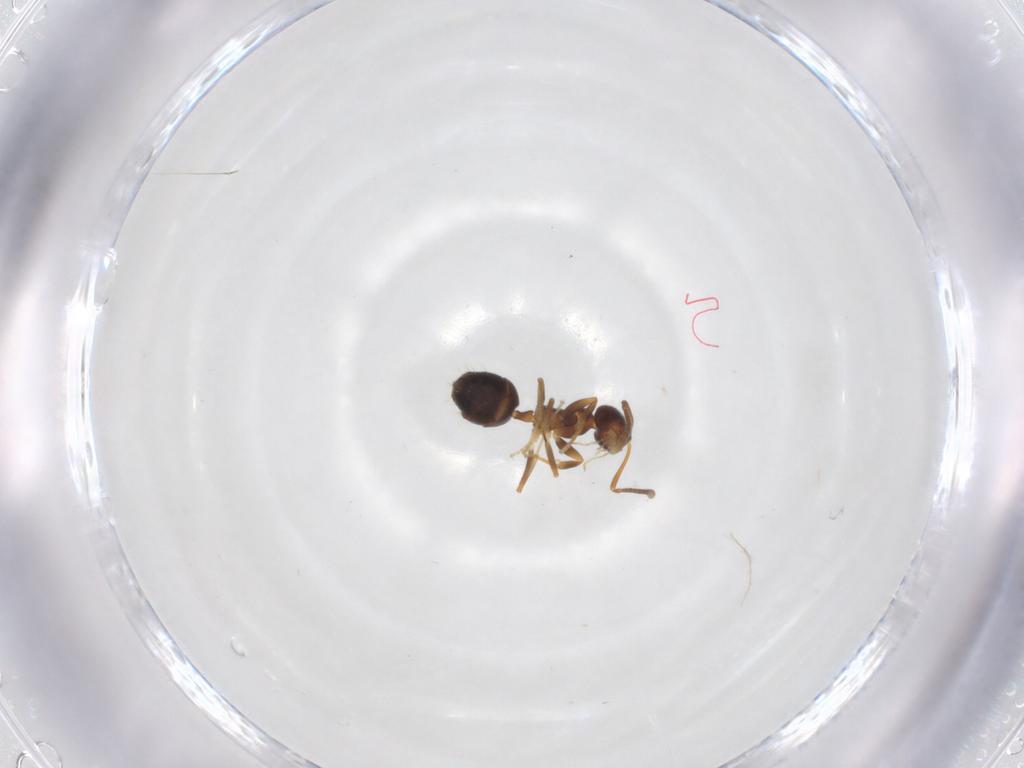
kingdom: Animalia
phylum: Arthropoda
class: Insecta
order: Hymenoptera
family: Formicidae
